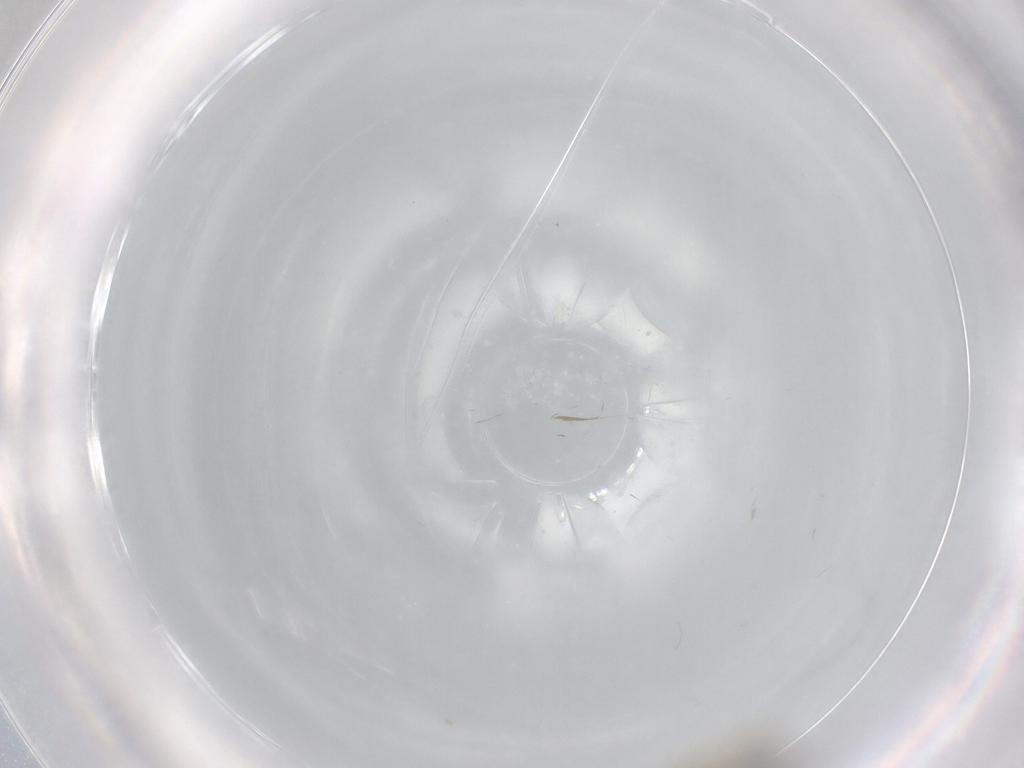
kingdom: Animalia
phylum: Arthropoda
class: Insecta
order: Diptera
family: Chironomidae
